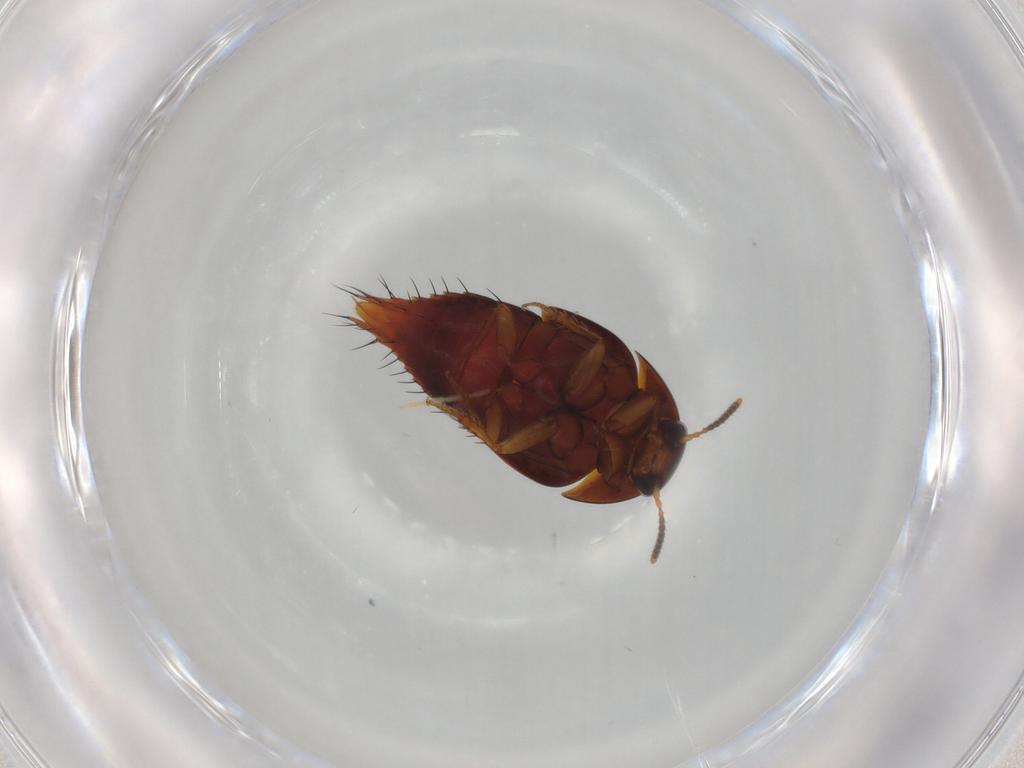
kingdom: Animalia
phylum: Arthropoda
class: Insecta
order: Coleoptera
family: Staphylinidae
